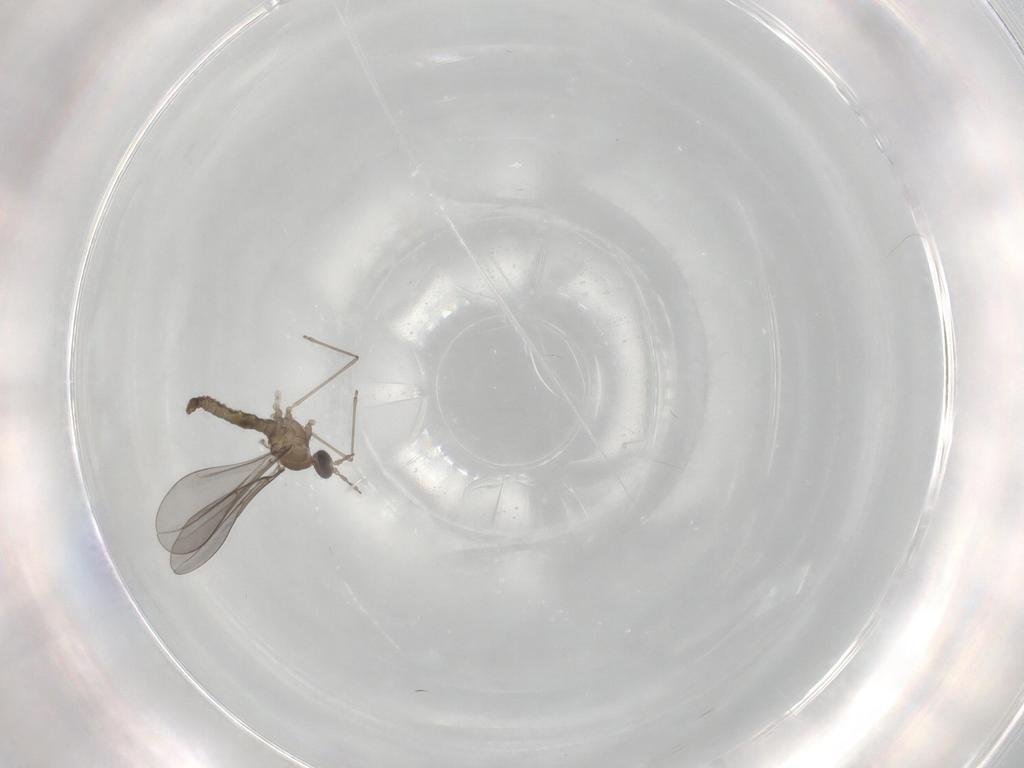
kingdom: Animalia
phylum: Arthropoda
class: Insecta
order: Diptera
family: Cecidomyiidae
